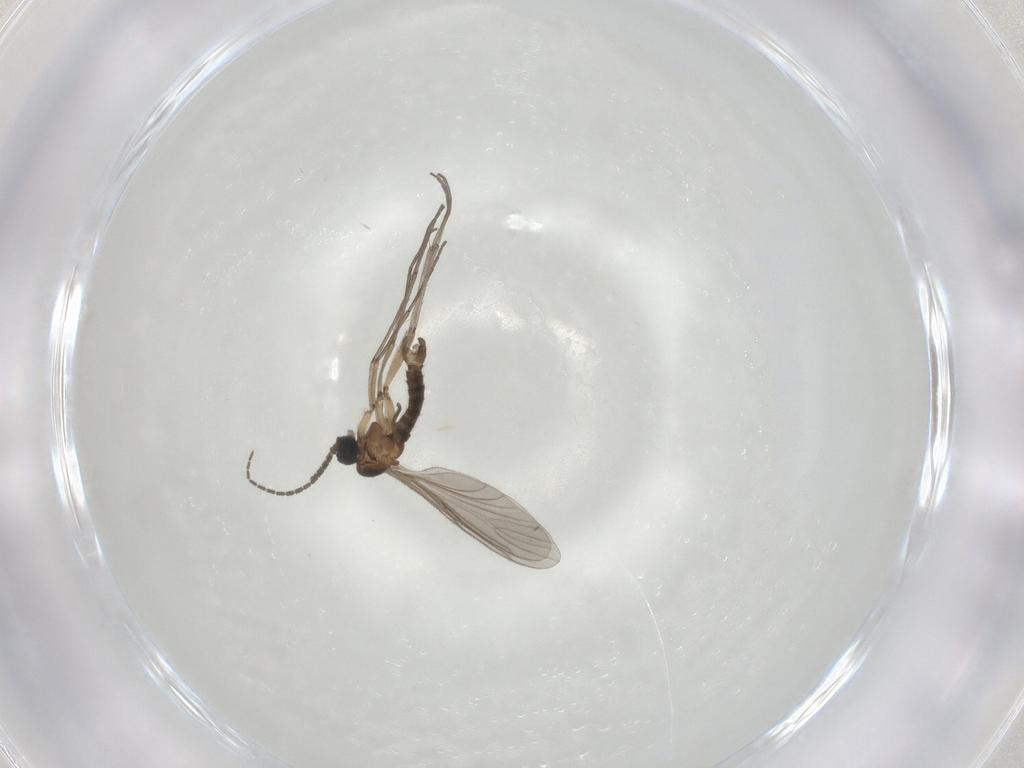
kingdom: Animalia
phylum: Arthropoda
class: Insecta
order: Diptera
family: Sciaridae
